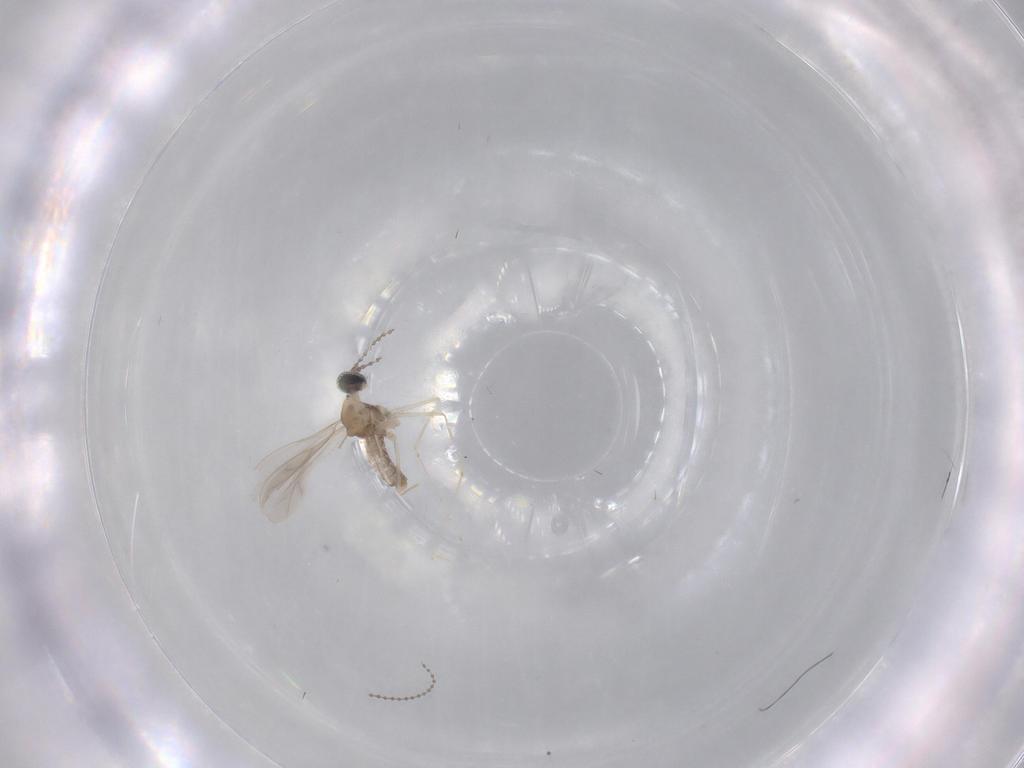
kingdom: Animalia
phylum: Arthropoda
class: Insecta
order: Diptera
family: Cecidomyiidae
